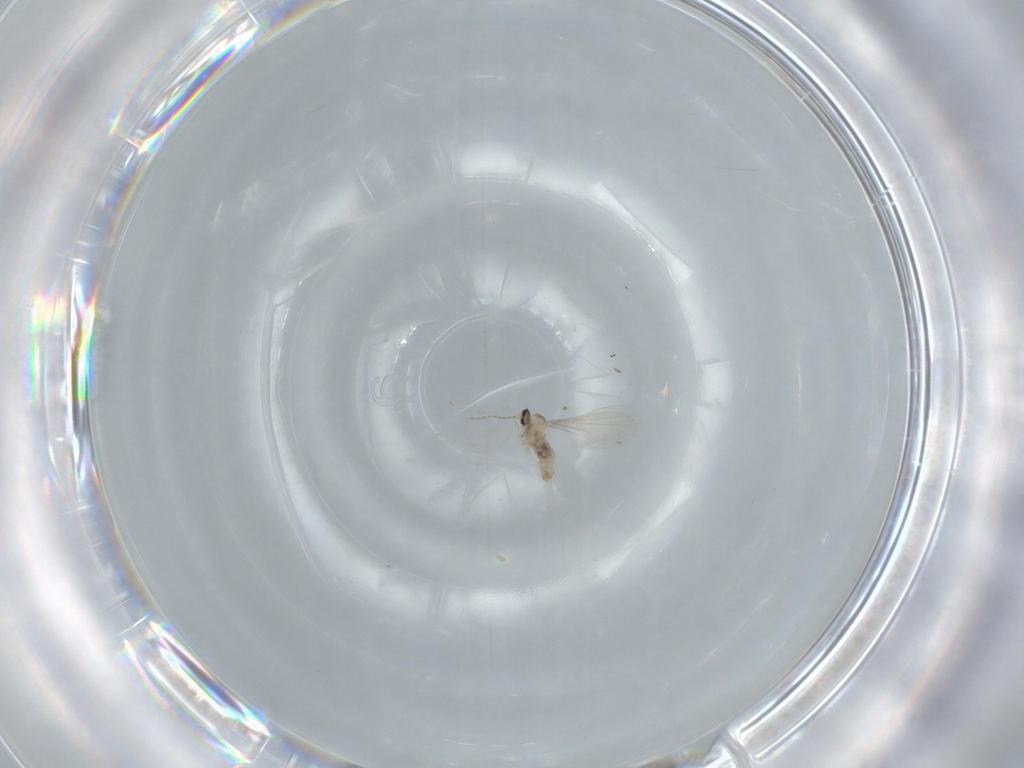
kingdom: Animalia
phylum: Arthropoda
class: Insecta
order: Diptera
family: Cecidomyiidae
